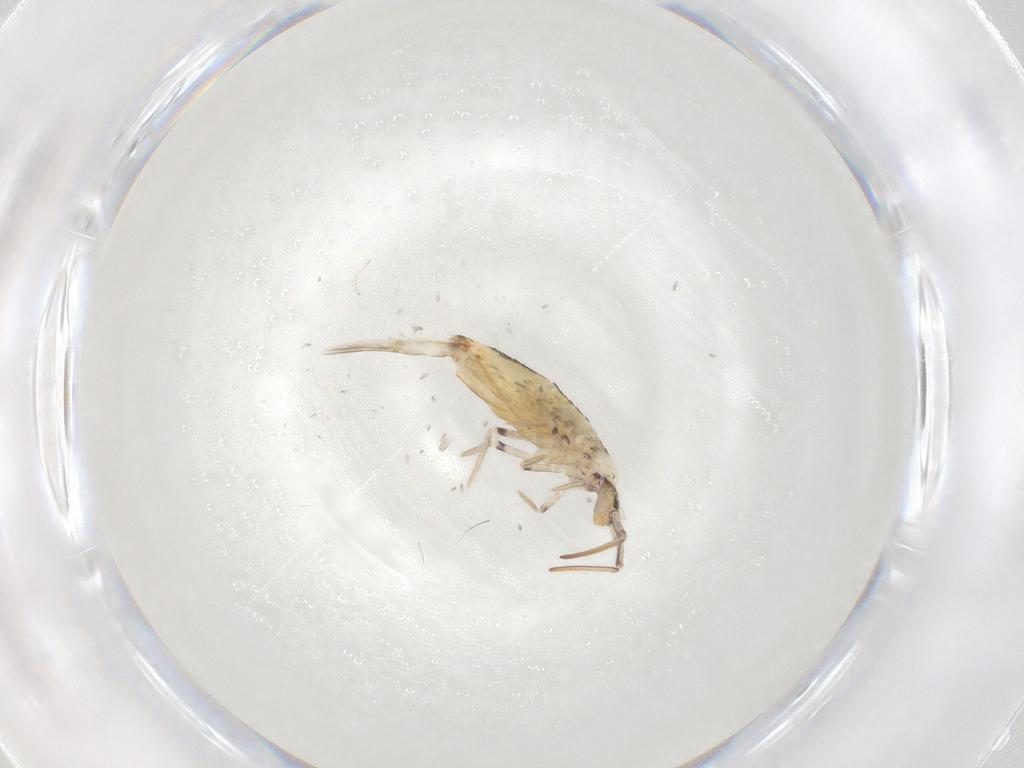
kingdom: Animalia
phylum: Arthropoda
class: Collembola
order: Entomobryomorpha
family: Entomobryidae
